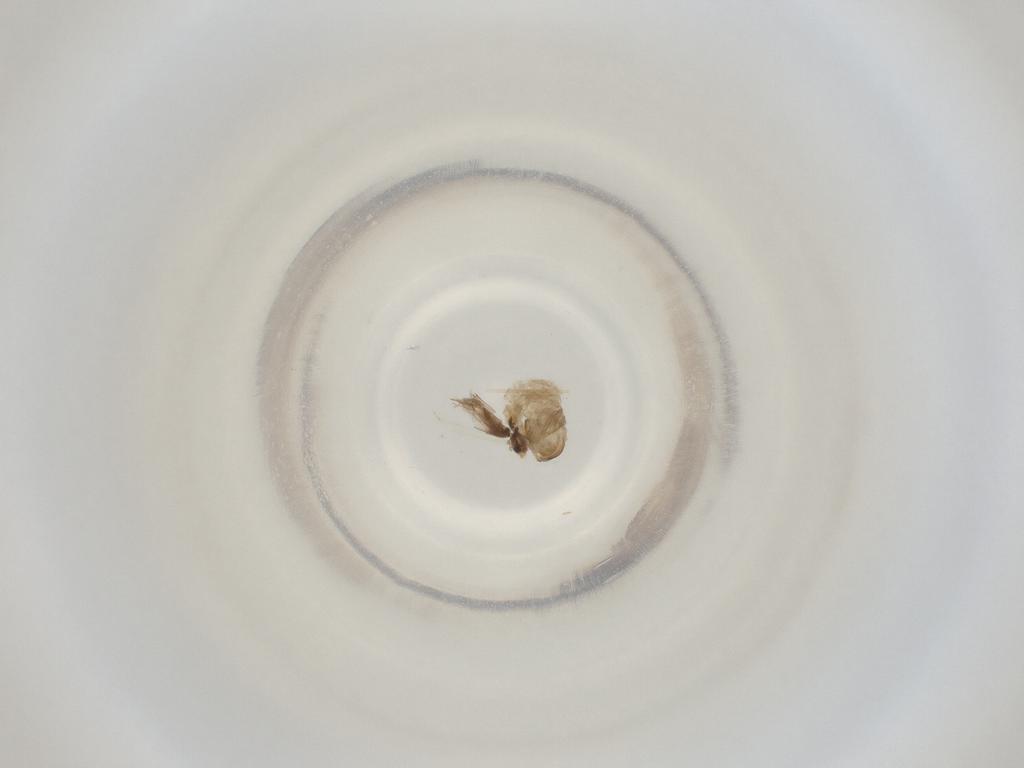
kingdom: Animalia
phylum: Arthropoda
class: Insecta
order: Diptera
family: Cecidomyiidae
